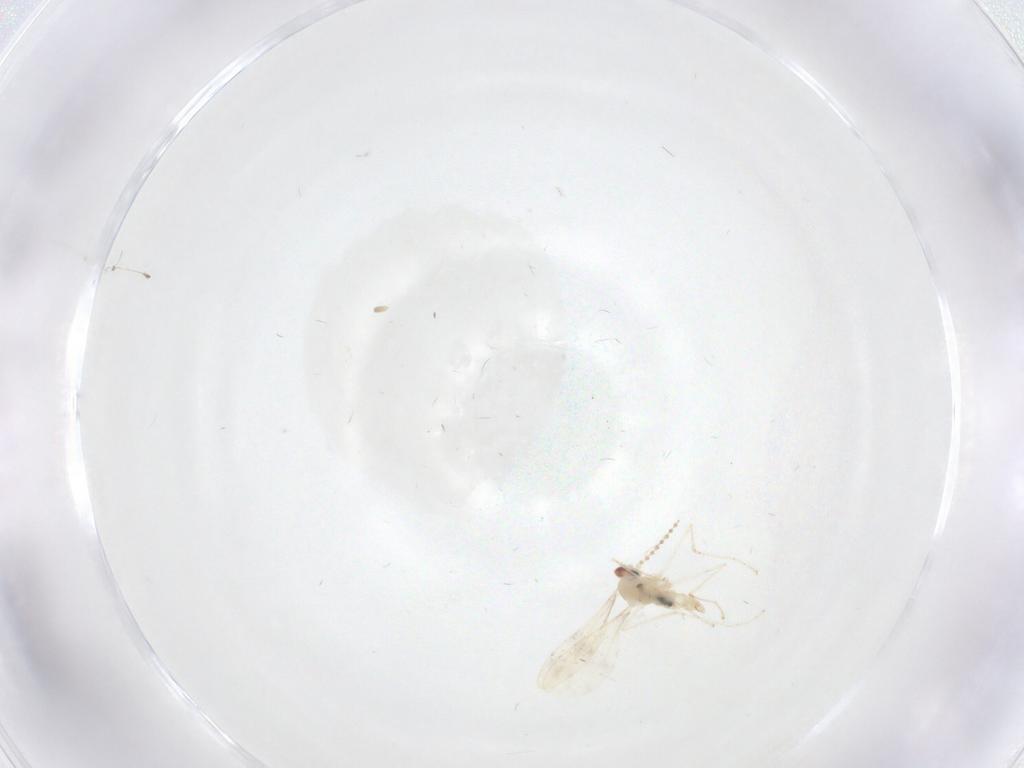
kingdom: Animalia
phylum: Arthropoda
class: Insecta
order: Diptera
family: Cecidomyiidae
